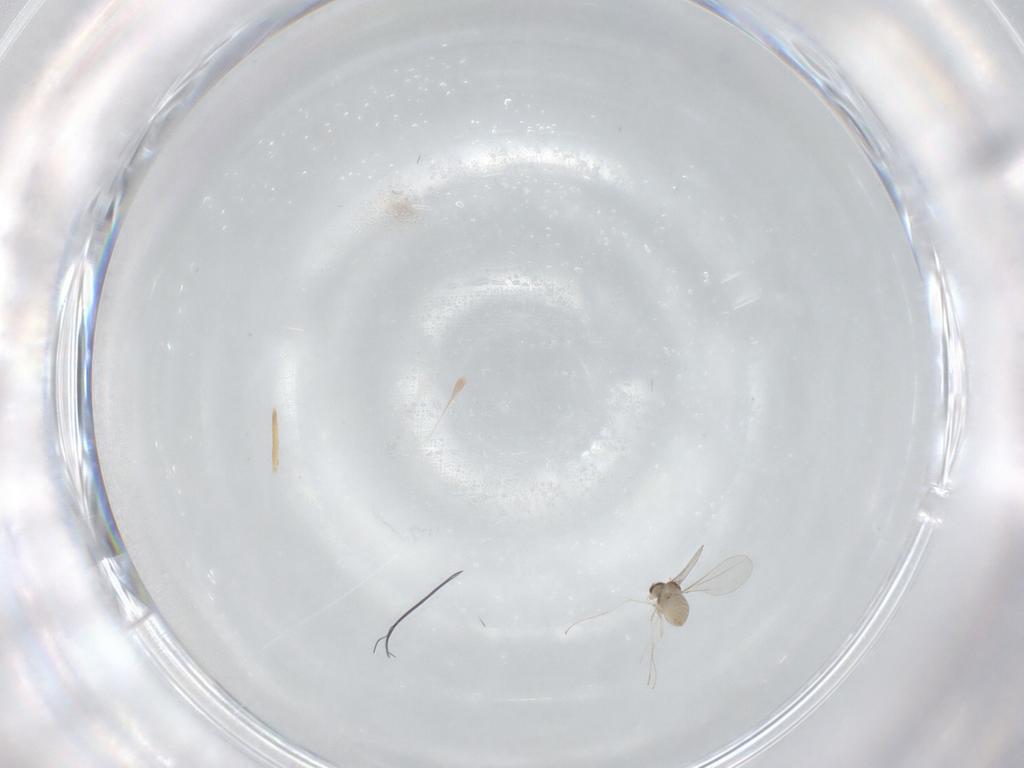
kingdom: Animalia
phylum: Arthropoda
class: Insecta
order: Diptera
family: Cecidomyiidae
